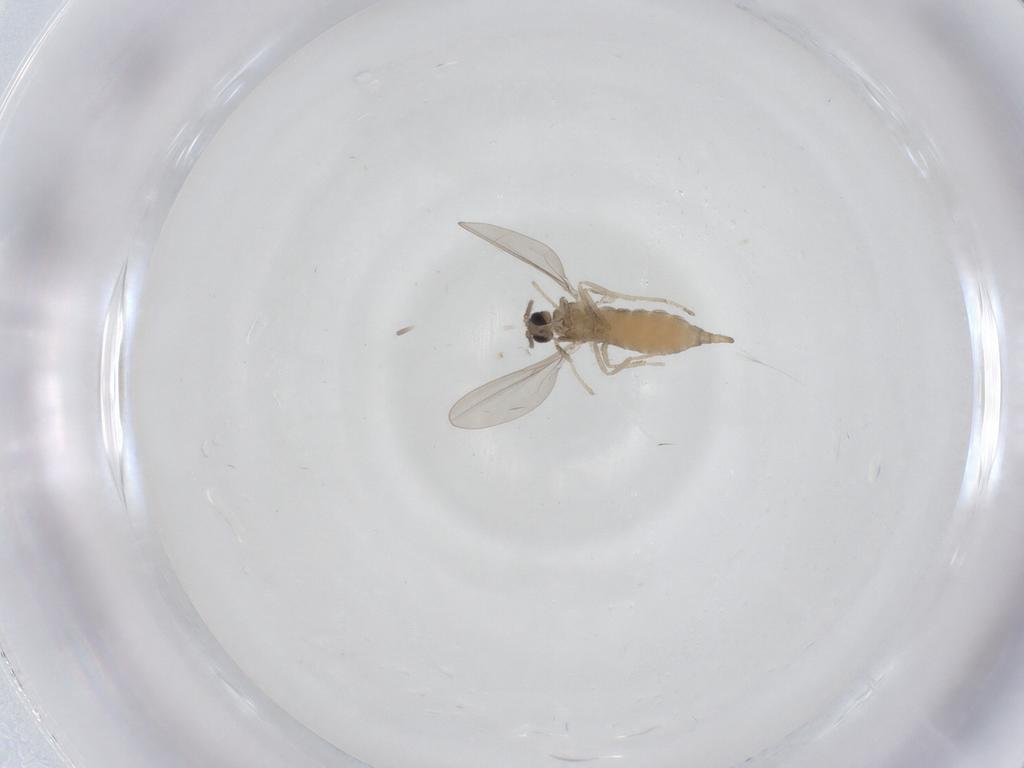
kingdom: Animalia
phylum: Arthropoda
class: Insecta
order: Diptera
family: Cecidomyiidae
